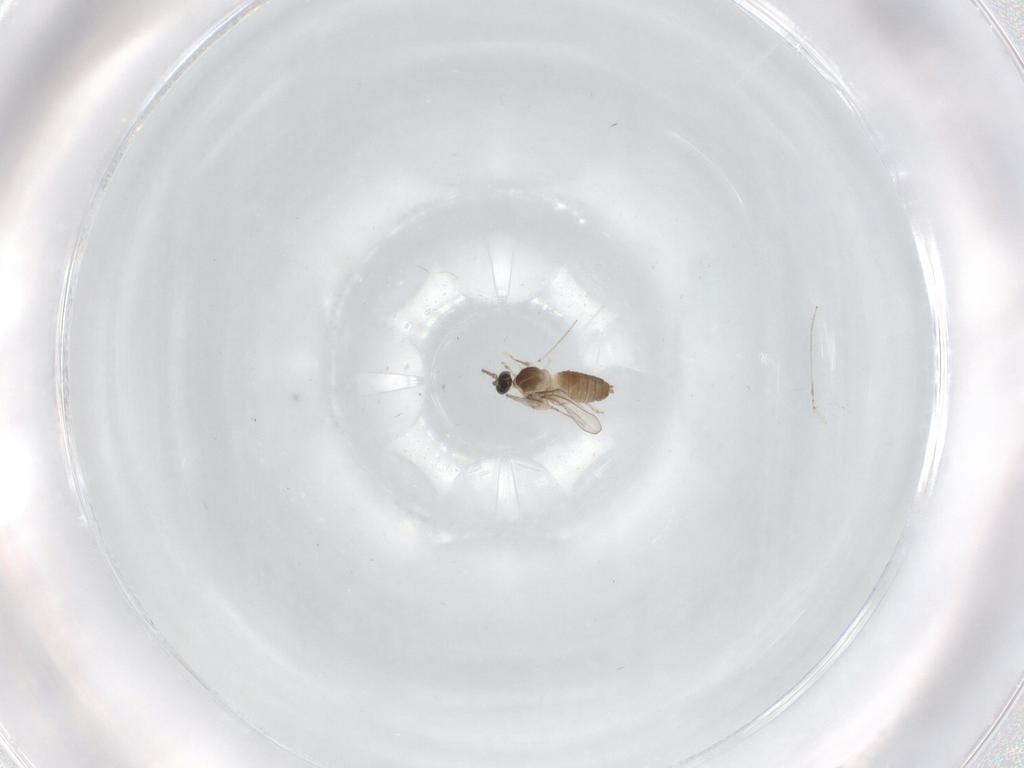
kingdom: Animalia
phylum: Arthropoda
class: Insecta
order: Diptera
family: Cecidomyiidae
